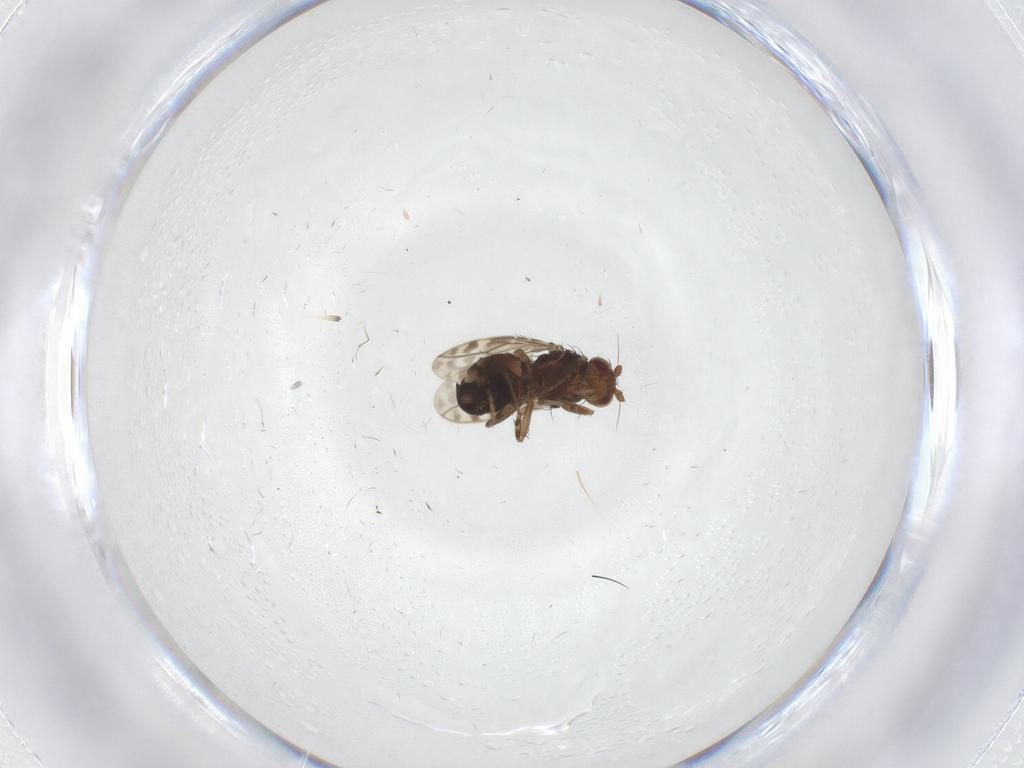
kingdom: Animalia
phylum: Arthropoda
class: Insecta
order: Diptera
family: Sphaeroceridae
